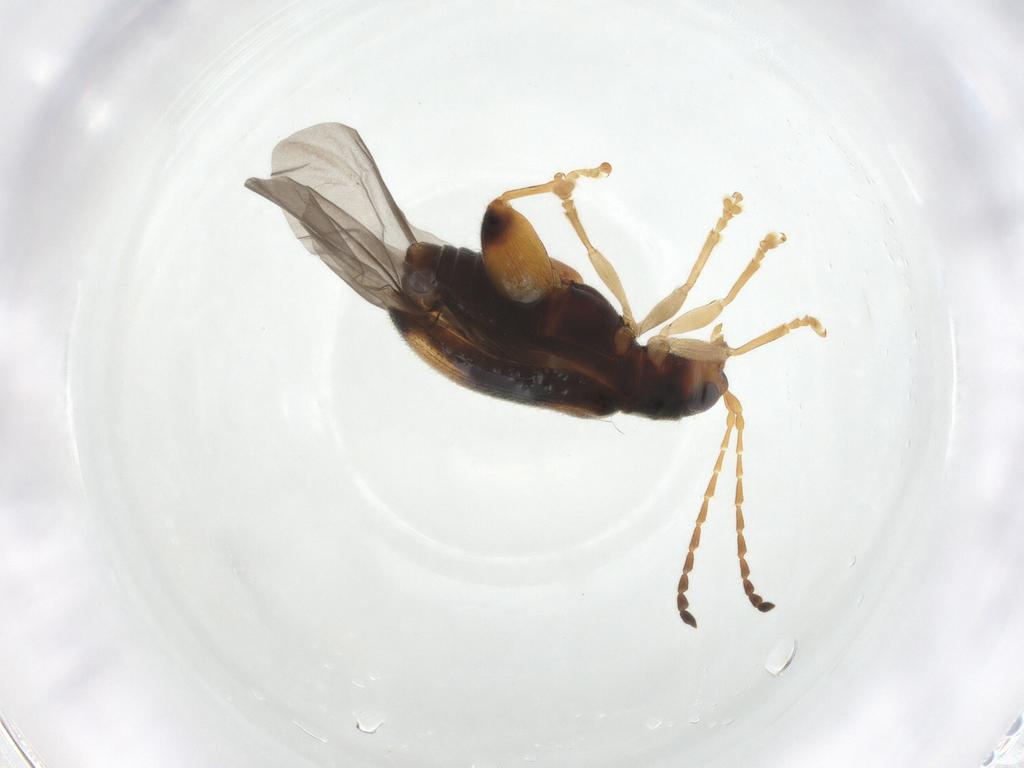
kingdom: Animalia
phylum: Arthropoda
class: Insecta
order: Coleoptera
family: Chrysomelidae
